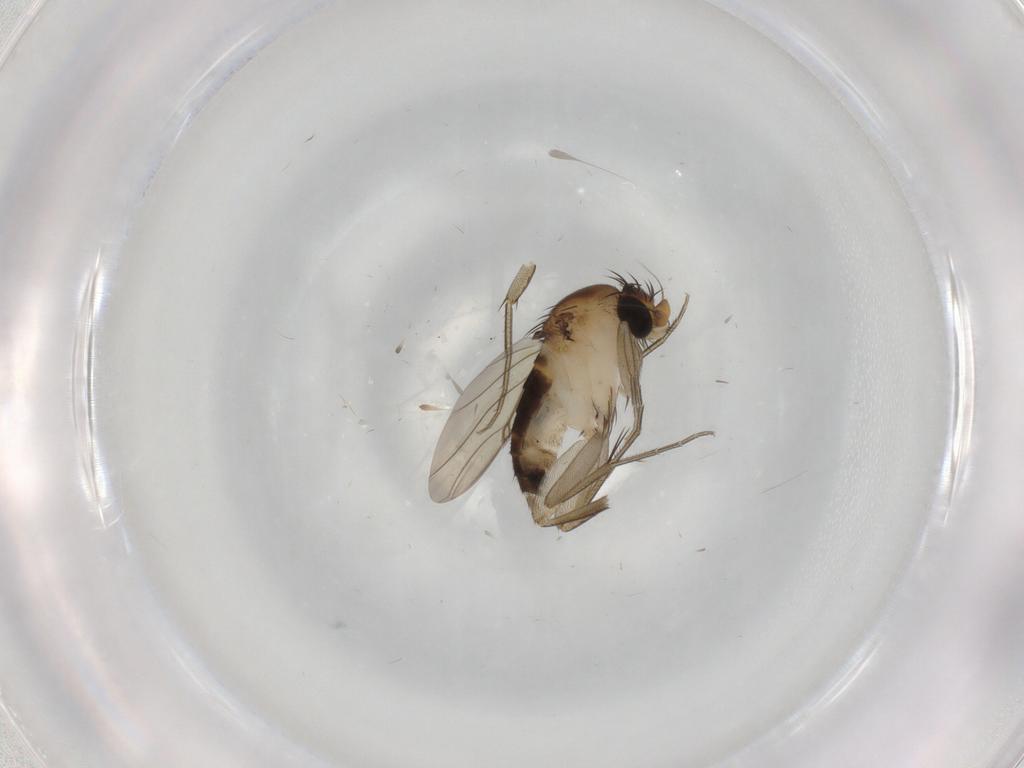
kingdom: Animalia
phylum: Arthropoda
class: Insecta
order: Diptera
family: Phoridae
